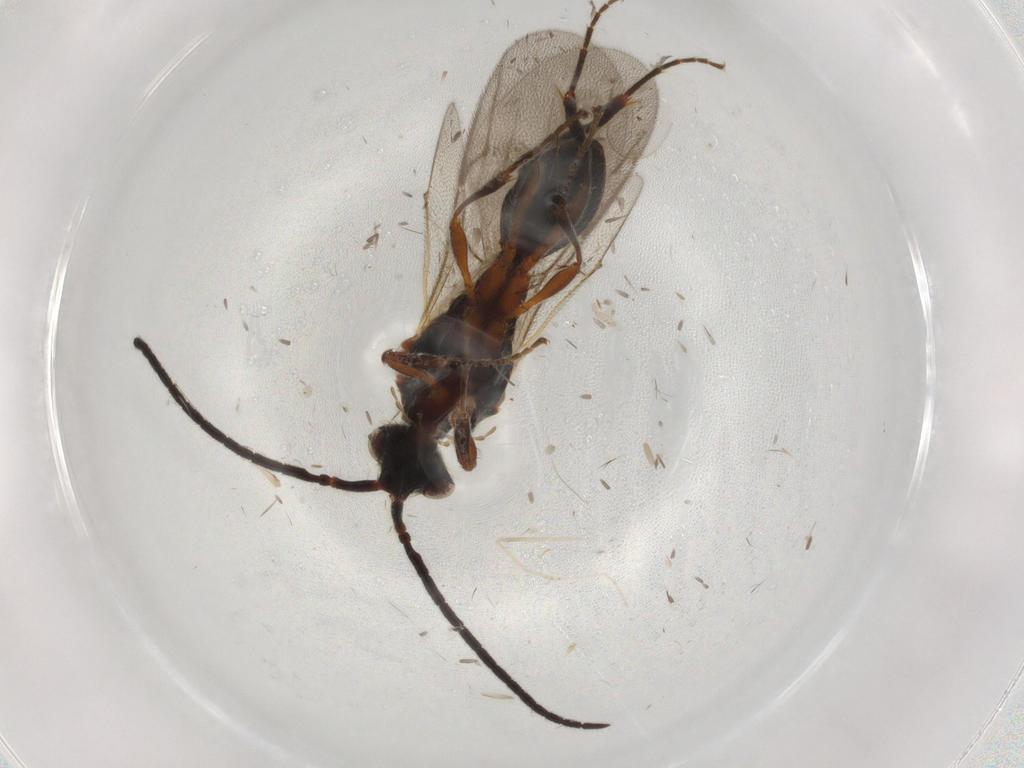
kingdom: Animalia
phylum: Arthropoda
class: Insecta
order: Hymenoptera
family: Diapriidae
